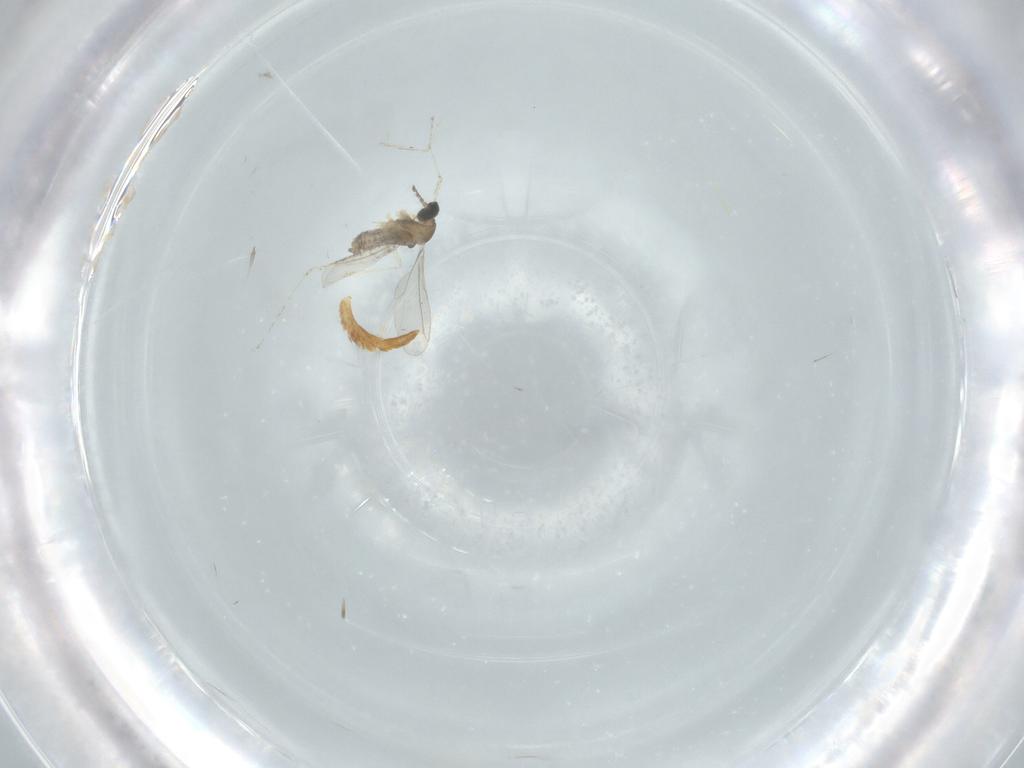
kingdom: Animalia
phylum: Arthropoda
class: Insecta
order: Diptera
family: Cecidomyiidae
